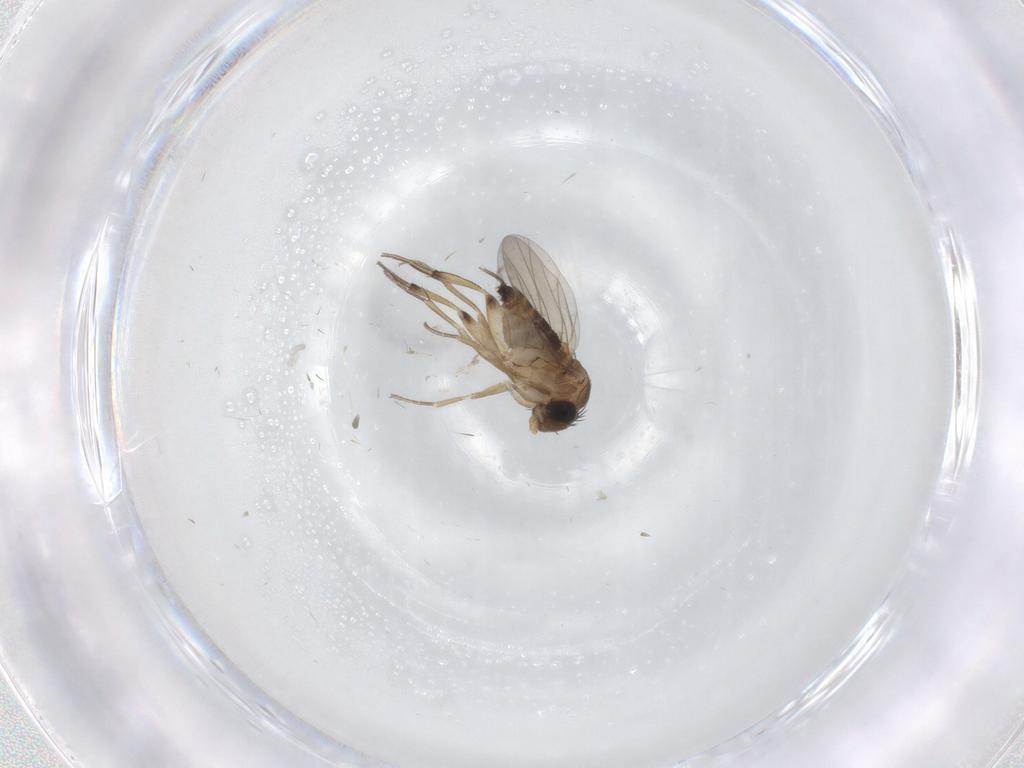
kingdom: Animalia
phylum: Arthropoda
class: Insecta
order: Diptera
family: Phoridae
